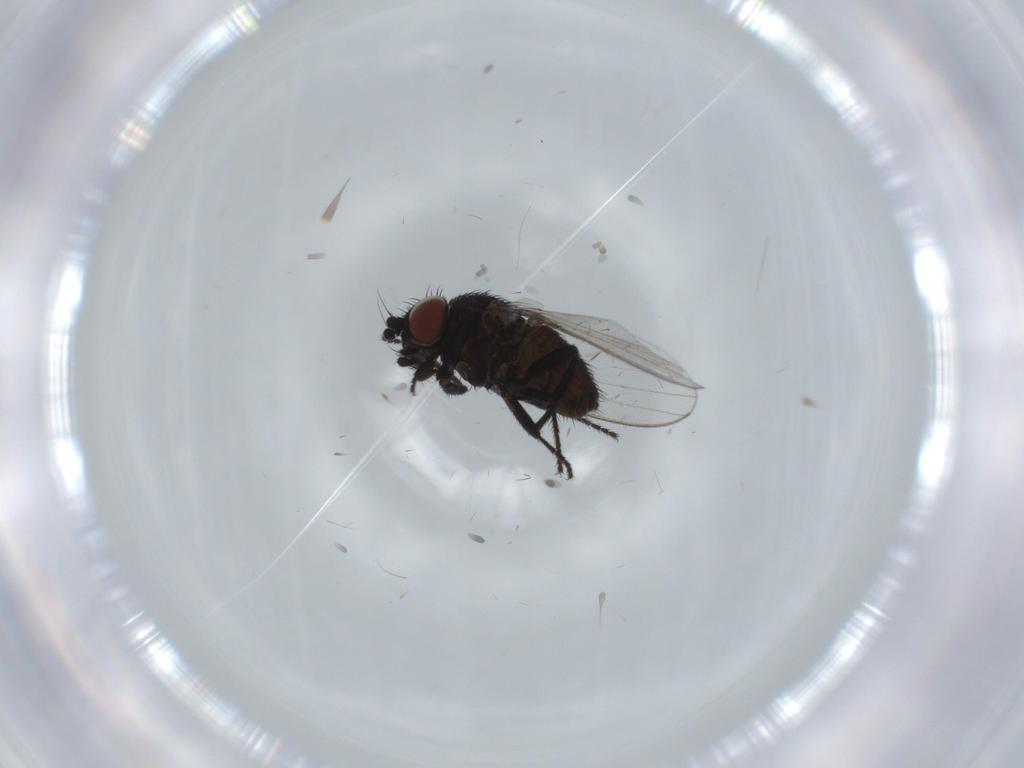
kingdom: Animalia
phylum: Arthropoda
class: Insecta
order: Diptera
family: Milichiidae
